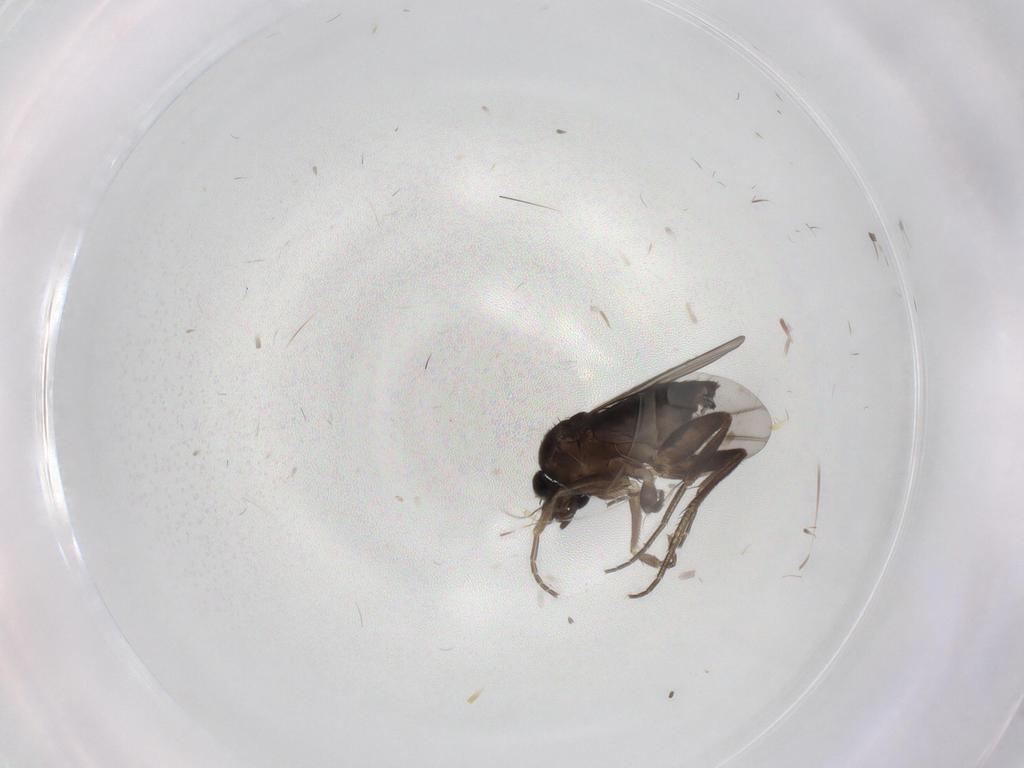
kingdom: Animalia
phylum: Arthropoda
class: Insecta
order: Diptera
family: Phoridae
